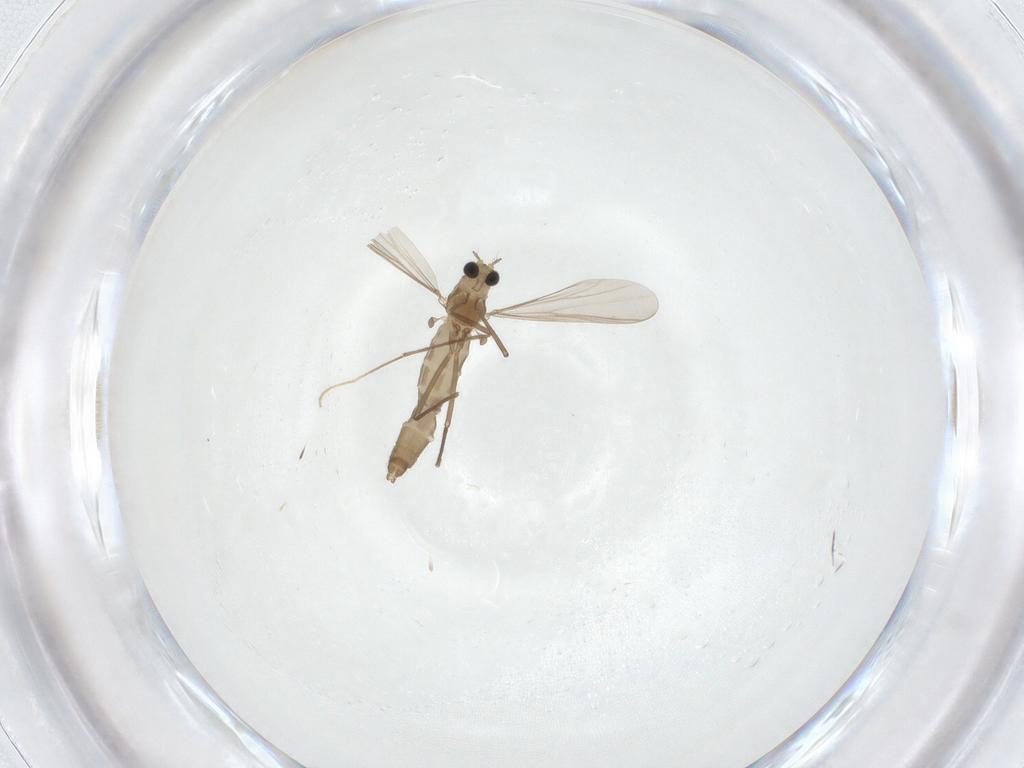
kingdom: Animalia
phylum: Arthropoda
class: Insecta
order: Diptera
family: Chironomidae
